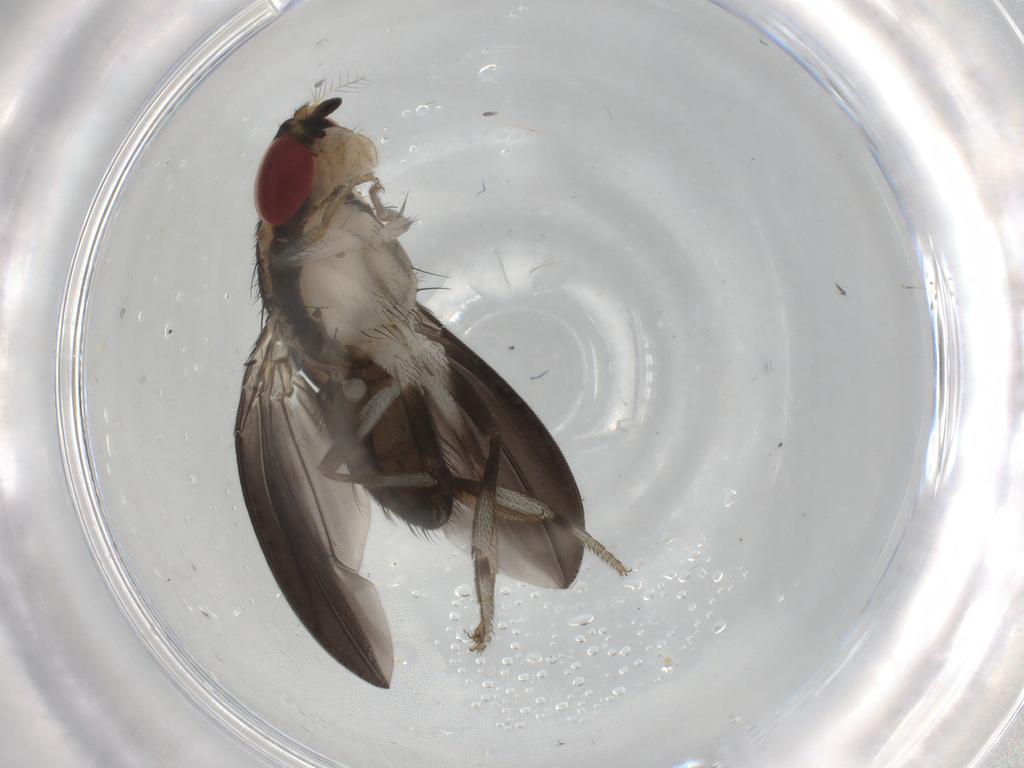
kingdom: Animalia
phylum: Arthropoda
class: Insecta
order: Diptera
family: Drosophilidae
